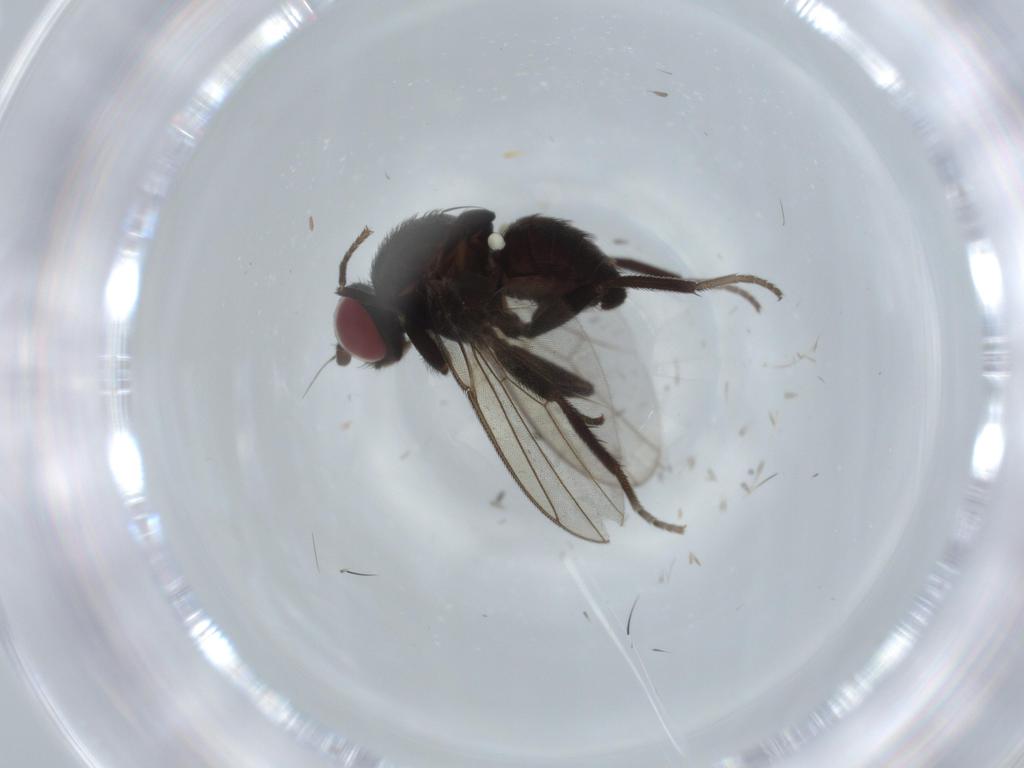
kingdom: Animalia
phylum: Arthropoda
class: Insecta
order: Diptera
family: Agromyzidae
